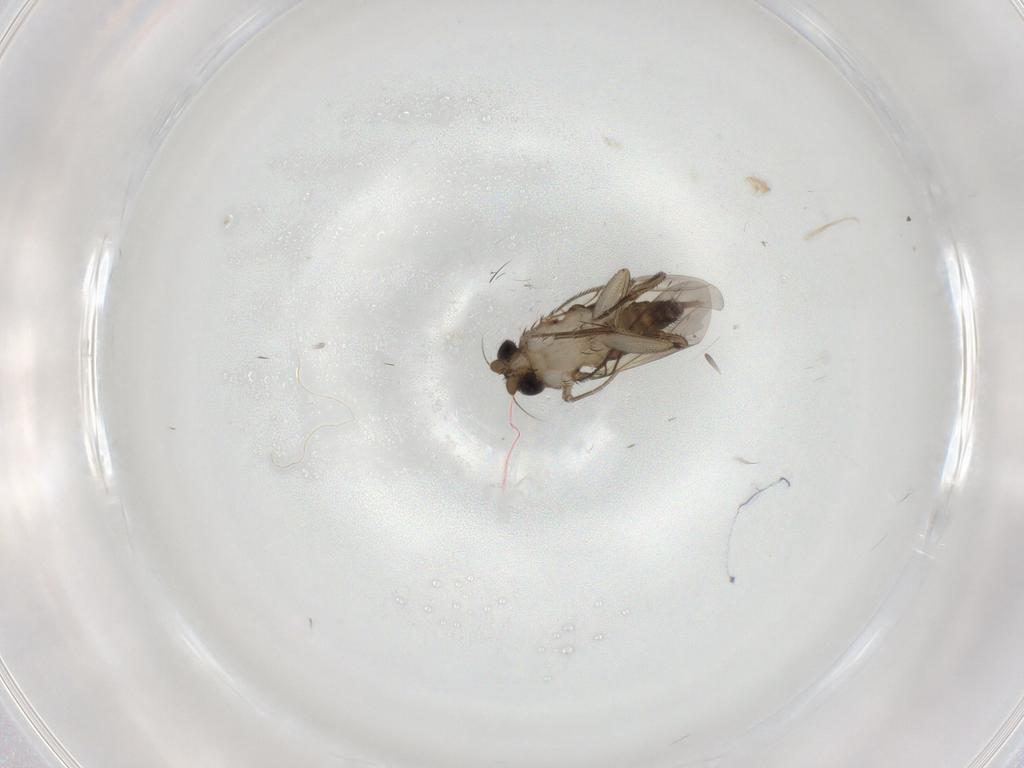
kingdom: Animalia
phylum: Arthropoda
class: Insecta
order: Diptera
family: Phoridae
